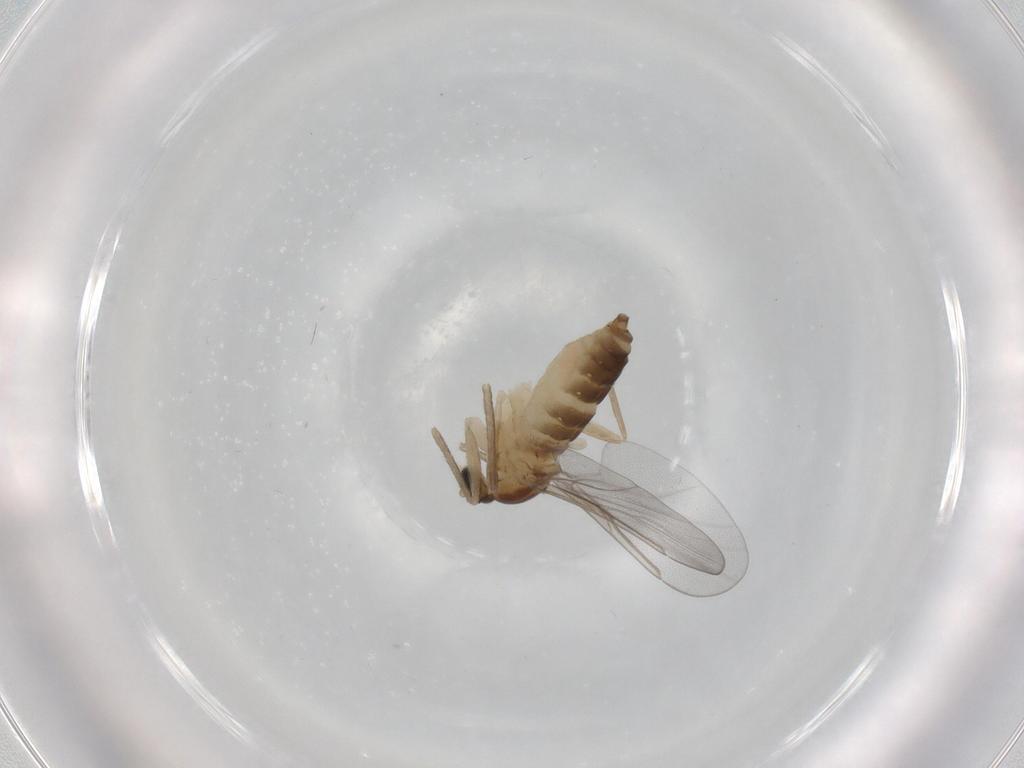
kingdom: Animalia
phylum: Arthropoda
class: Insecta
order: Diptera
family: Cecidomyiidae
